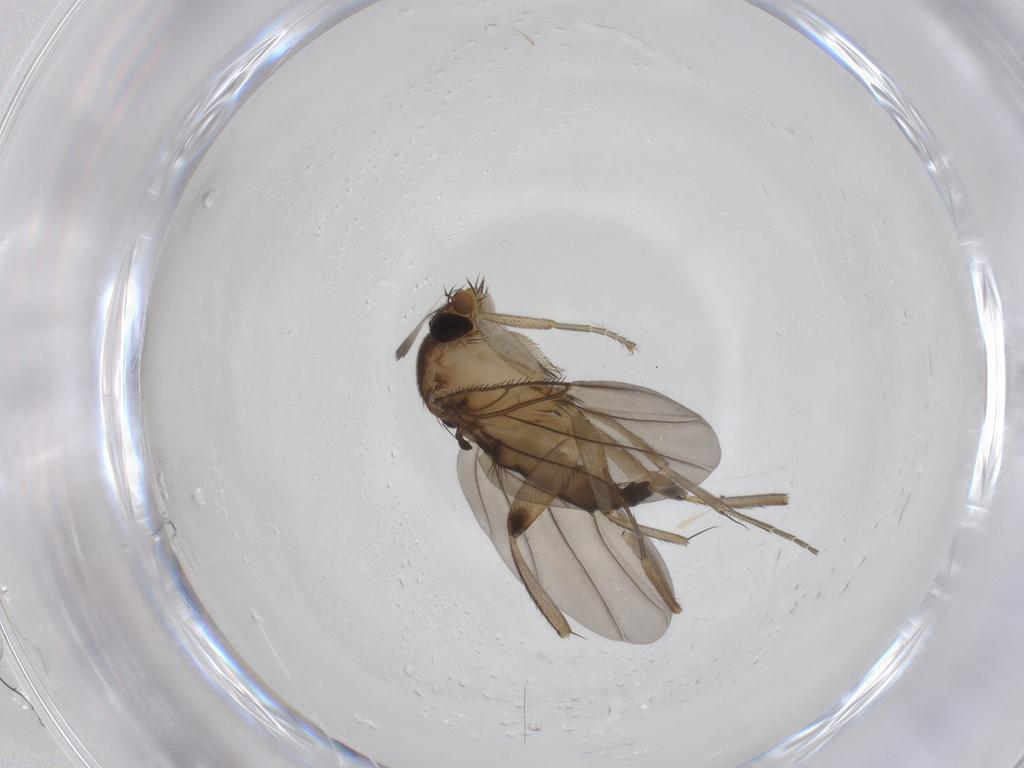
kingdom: Animalia
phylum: Arthropoda
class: Insecta
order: Diptera
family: Phoridae
